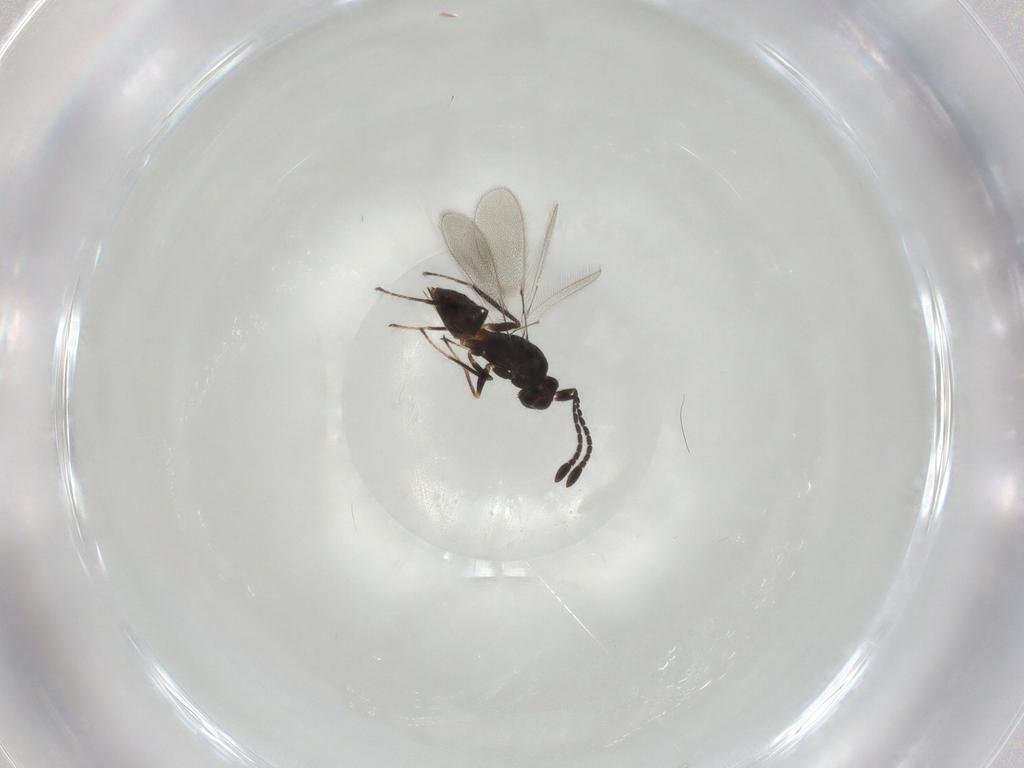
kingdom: Animalia
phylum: Arthropoda
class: Insecta
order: Hymenoptera
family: Mymaridae
